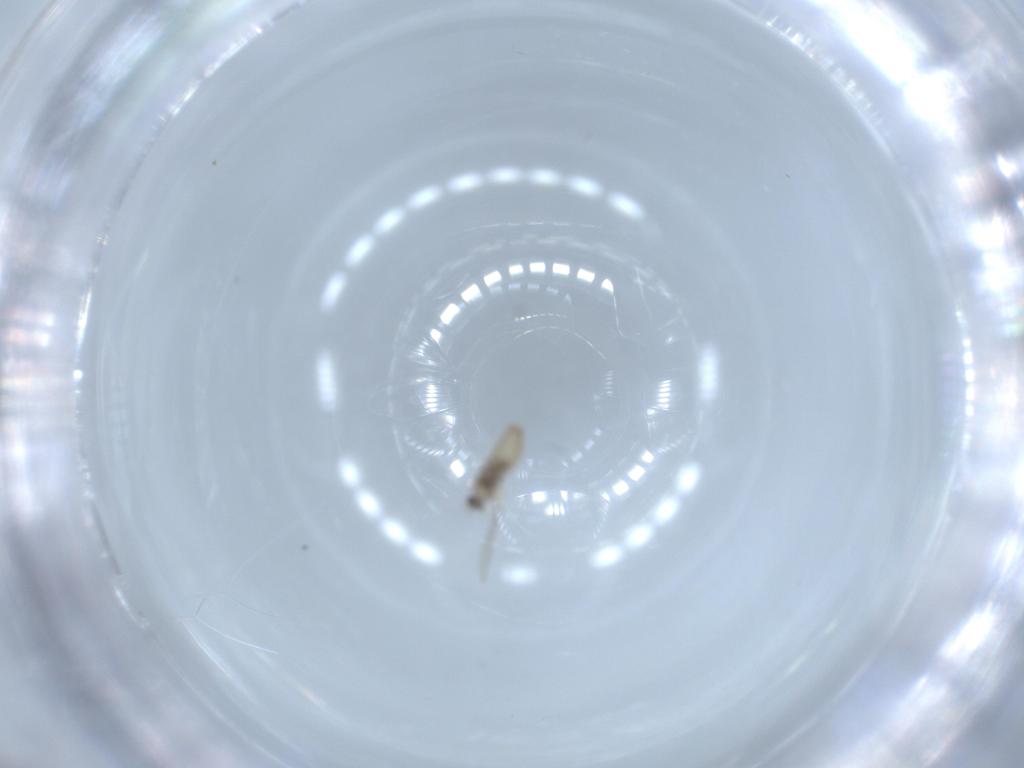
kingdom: Animalia
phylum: Arthropoda
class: Insecta
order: Diptera
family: Cecidomyiidae
